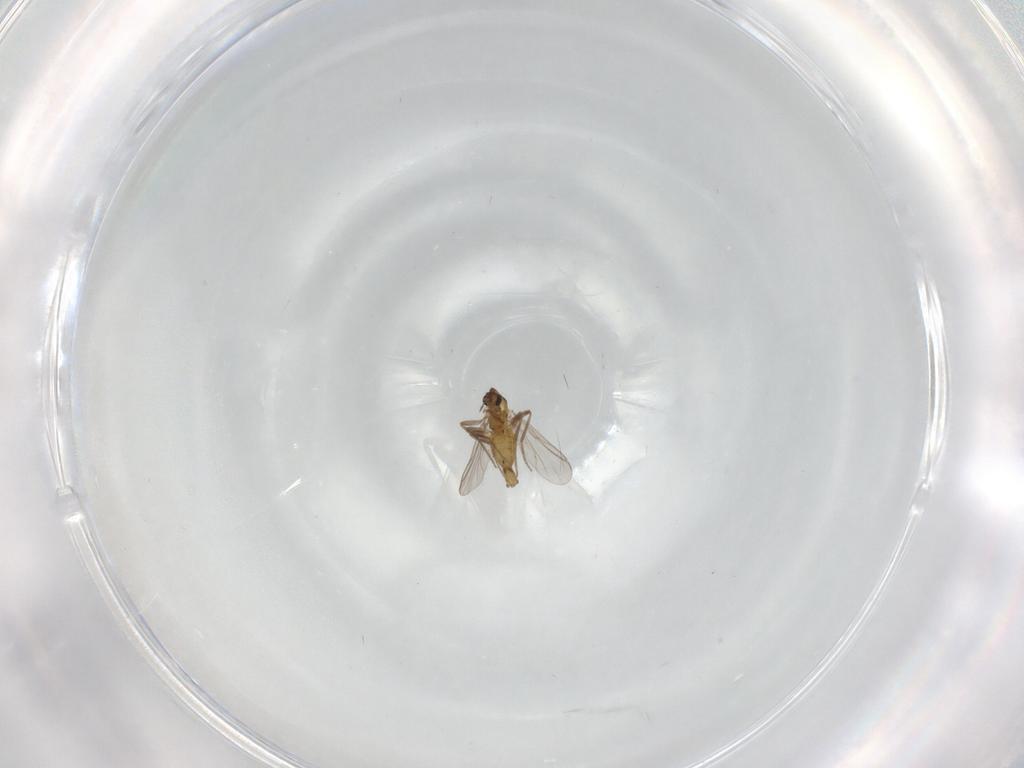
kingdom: Animalia
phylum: Arthropoda
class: Insecta
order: Diptera
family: Chironomidae
